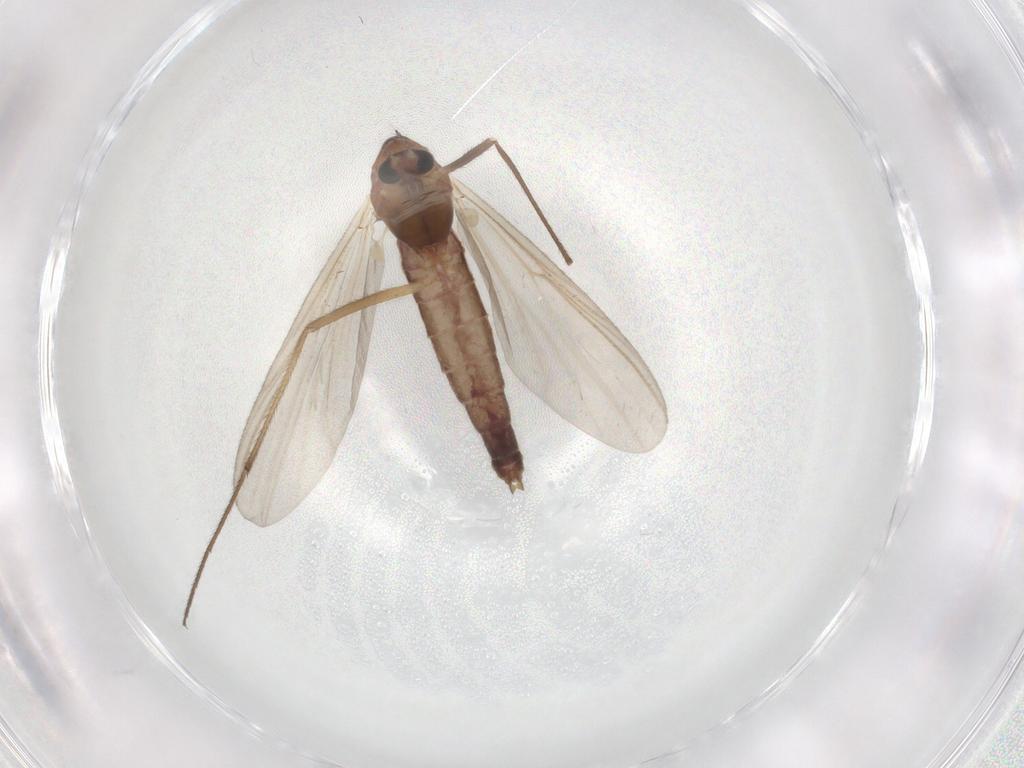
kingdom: Animalia
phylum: Arthropoda
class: Insecta
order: Diptera
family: Chironomidae
